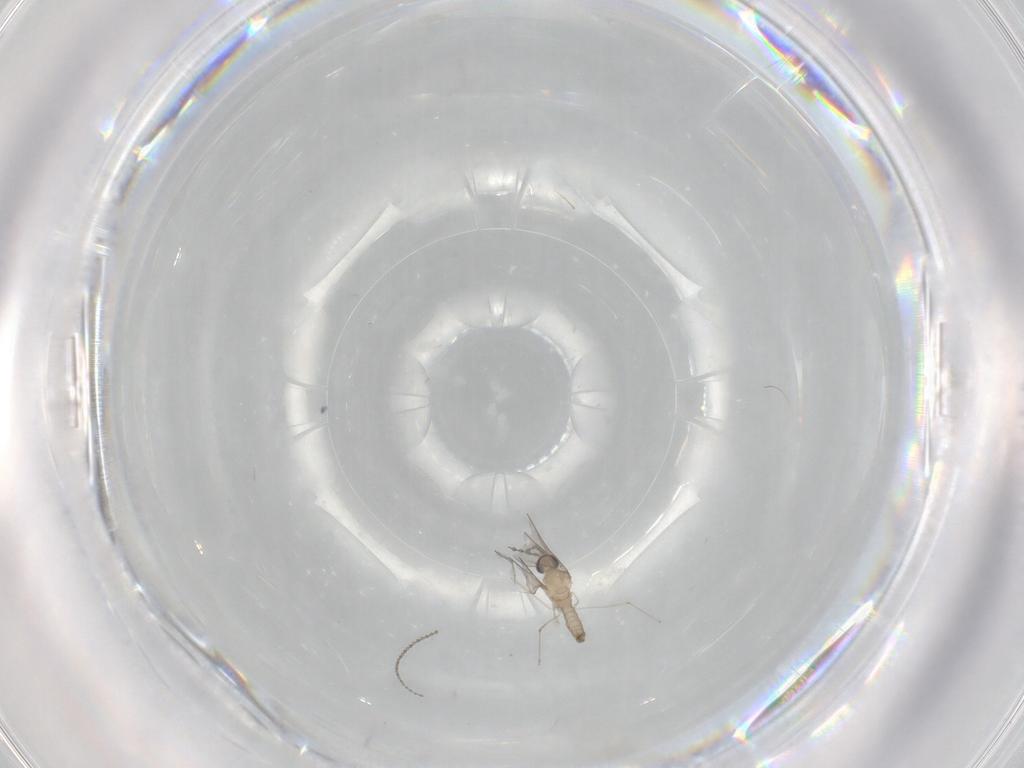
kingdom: Animalia
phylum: Arthropoda
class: Insecta
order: Diptera
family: Cecidomyiidae
